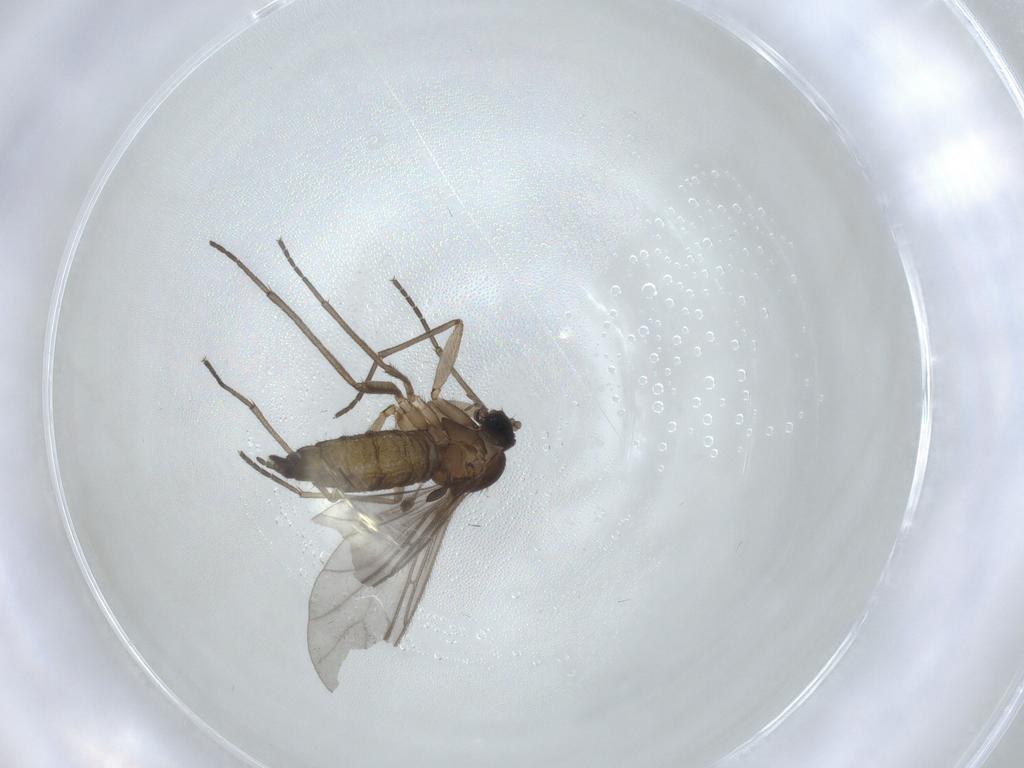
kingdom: Animalia
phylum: Arthropoda
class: Insecta
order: Diptera
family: Sciaridae
